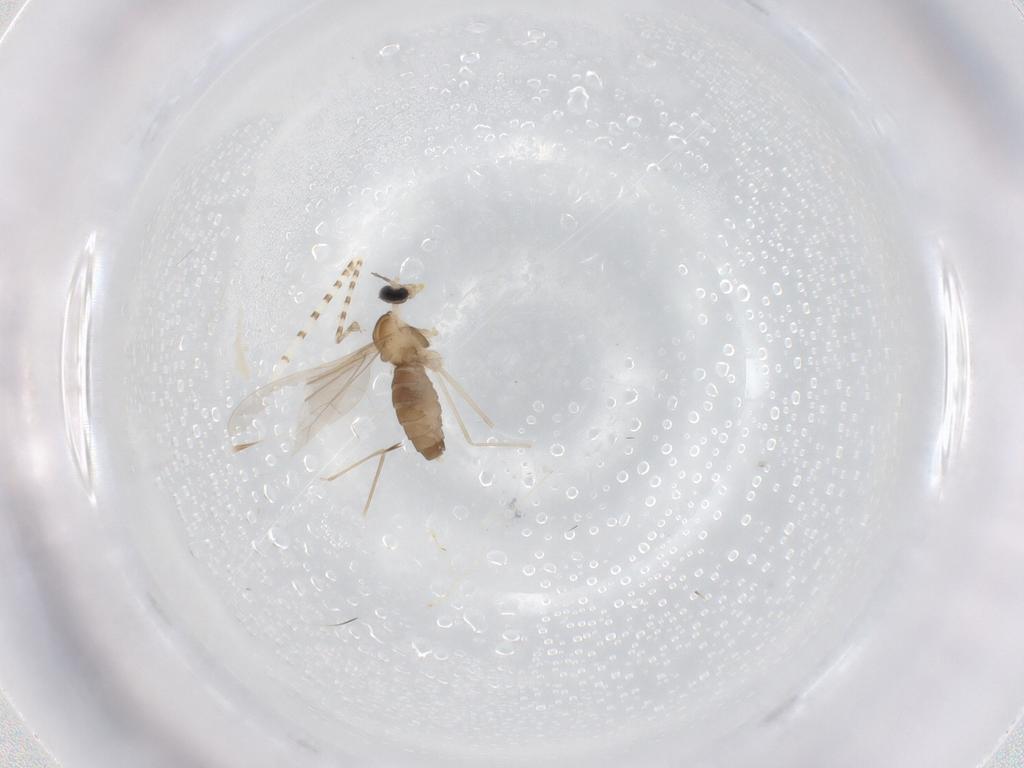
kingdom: Animalia
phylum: Arthropoda
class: Insecta
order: Diptera
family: Cecidomyiidae
